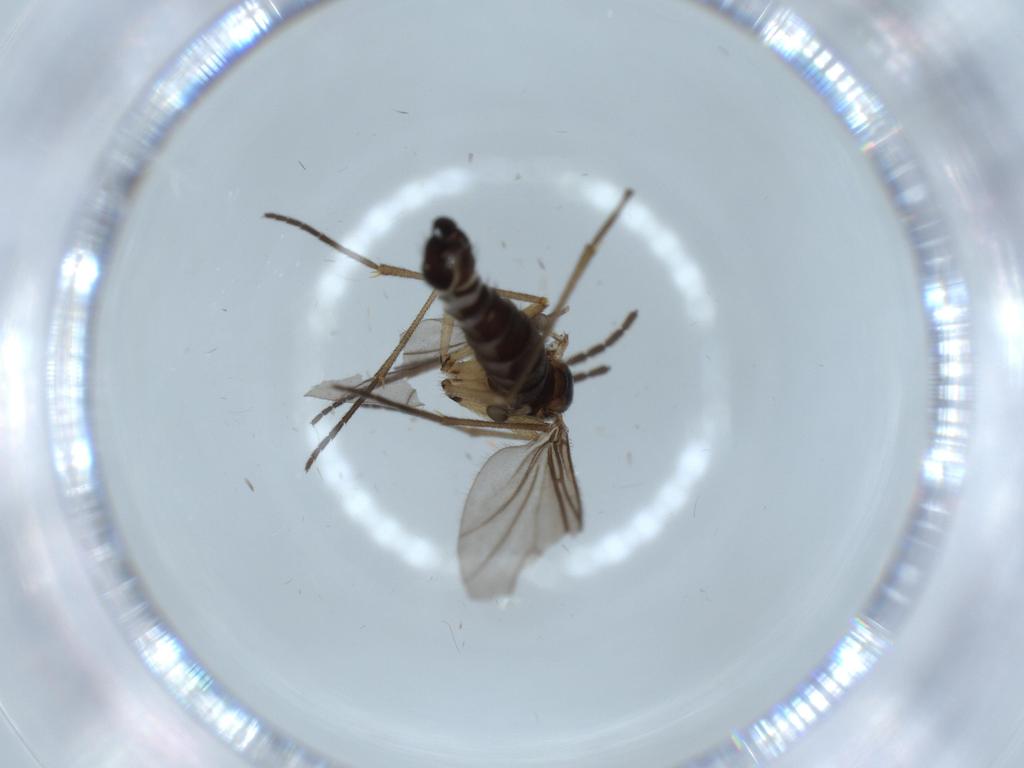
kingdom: Animalia
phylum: Arthropoda
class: Insecta
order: Diptera
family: Sciaridae
